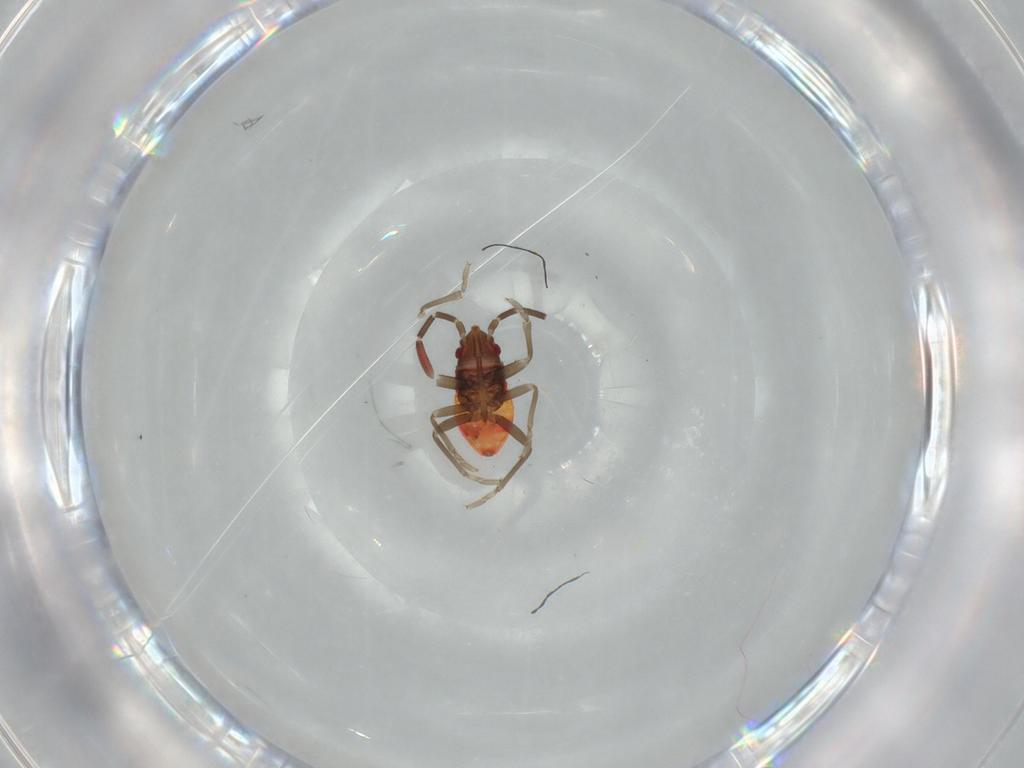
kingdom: Animalia
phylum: Arthropoda
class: Insecta
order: Hemiptera
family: Rhyparochromidae
